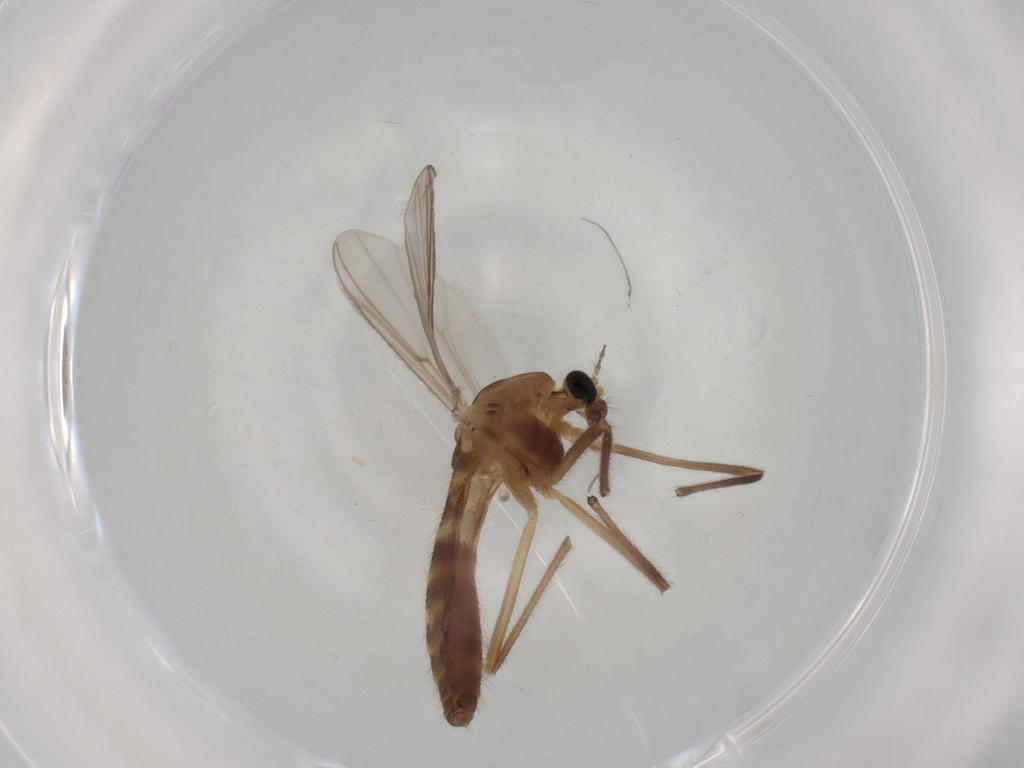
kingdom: Animalia
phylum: Arthropoda
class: Insecta
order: Diptera
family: Chironomidae
